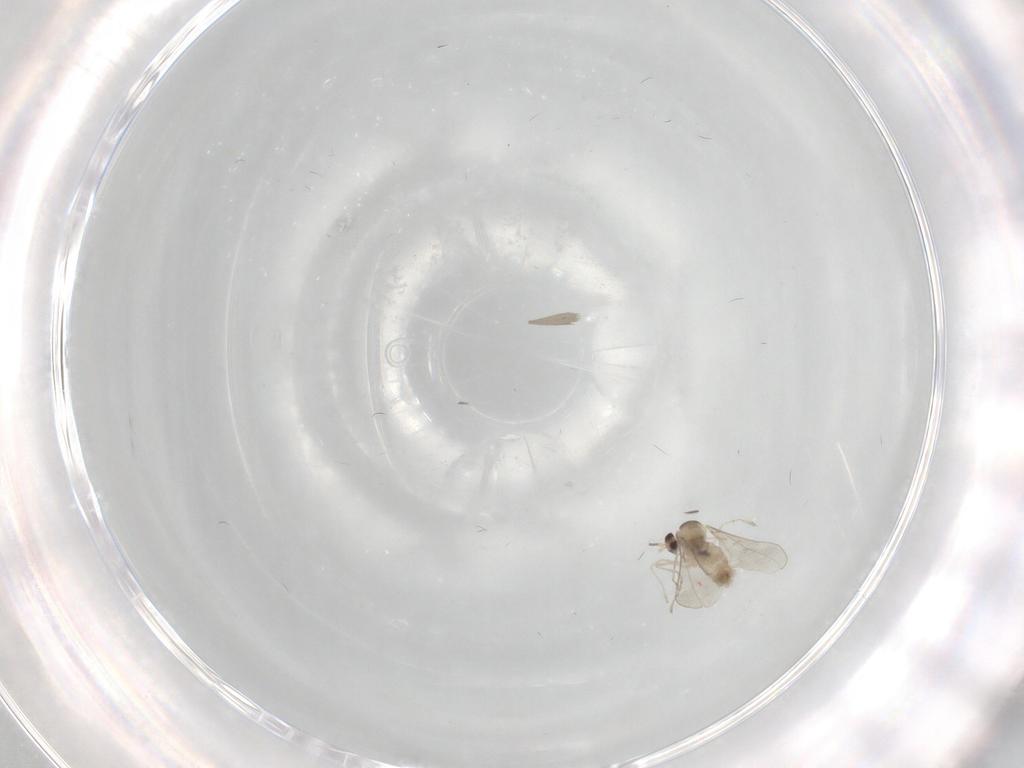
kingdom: Animalia
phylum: Arthropoda
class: Insecta
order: Diptera
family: Cecidomyiidae
